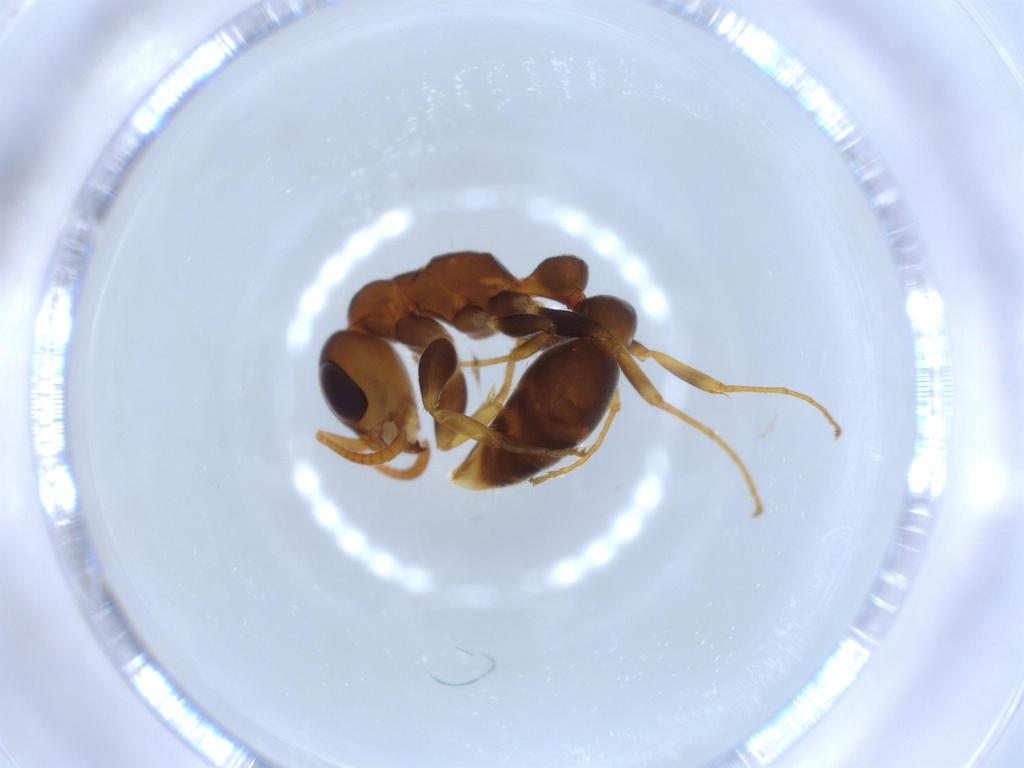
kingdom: Animalia
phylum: Arthropoda
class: Insecta
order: Hymenoptera
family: Formicidae
